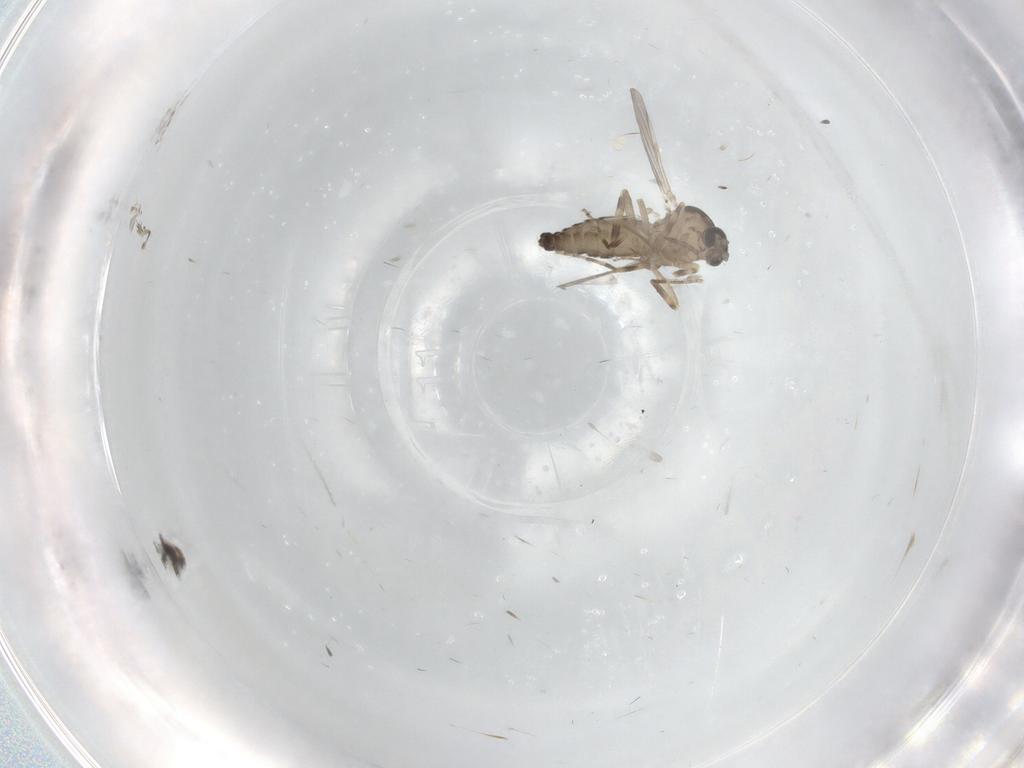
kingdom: Animalia
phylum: Arthropoda
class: Insecta
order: Diptera
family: Ceratopogonidae
